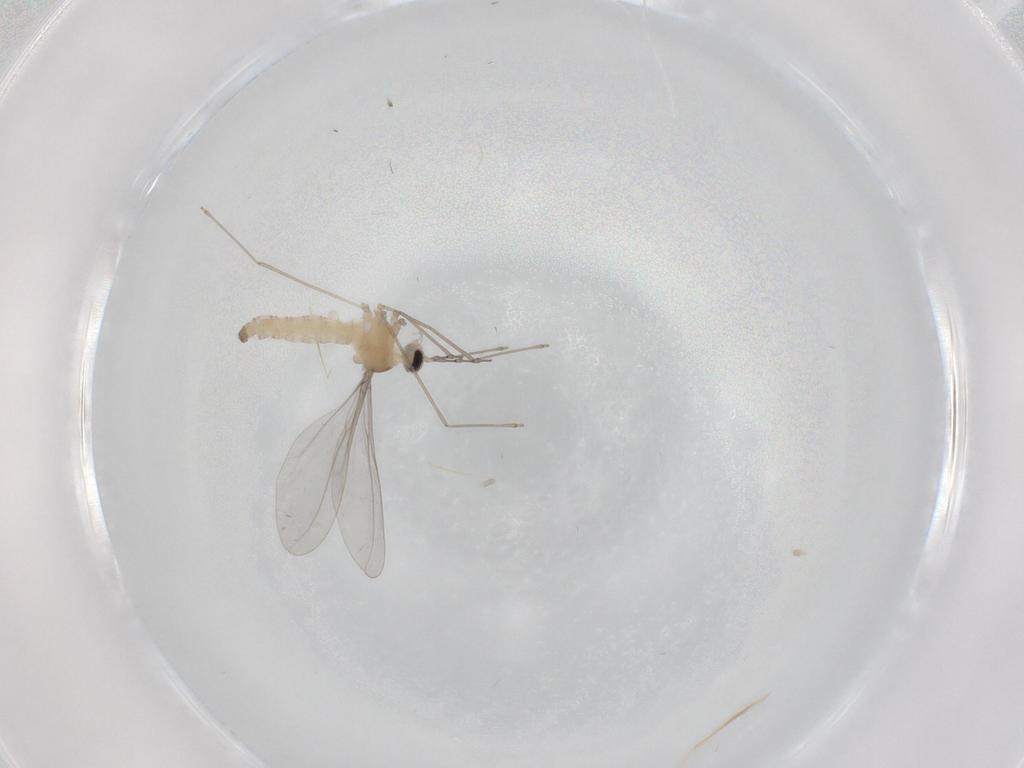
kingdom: Animalia
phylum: Arthropoda
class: Insecta
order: Diptera
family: Cecidomyiidae
